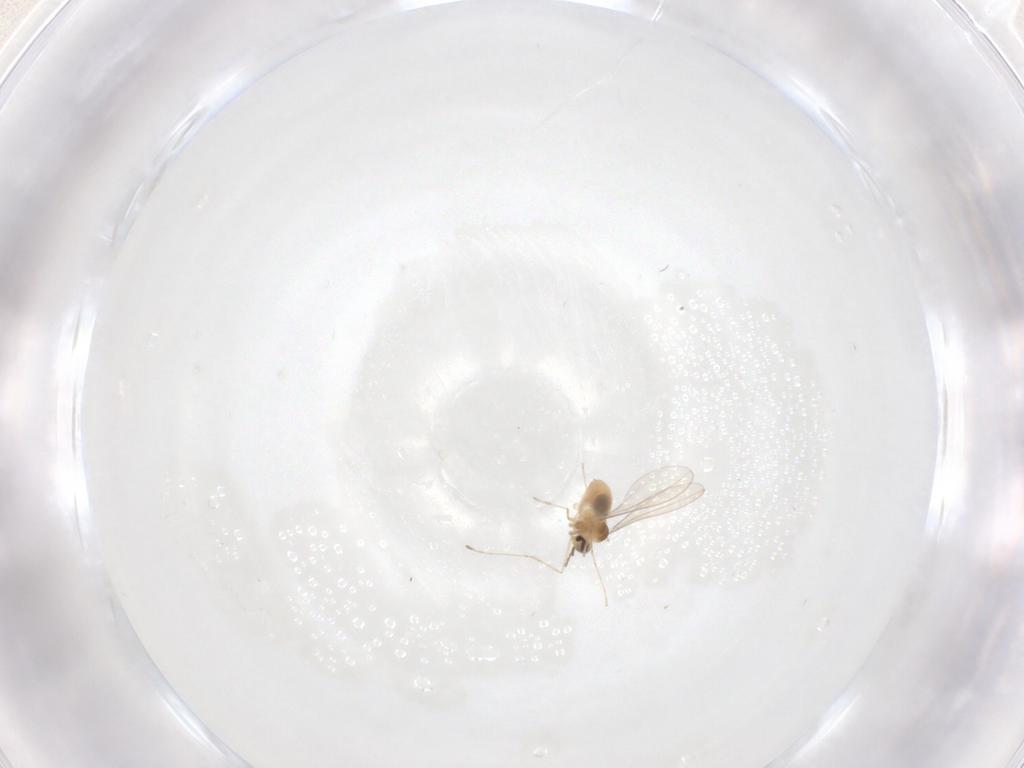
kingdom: Animalia
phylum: Arthropoda
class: Insecta
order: Diptera
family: Cecidomyiidae
